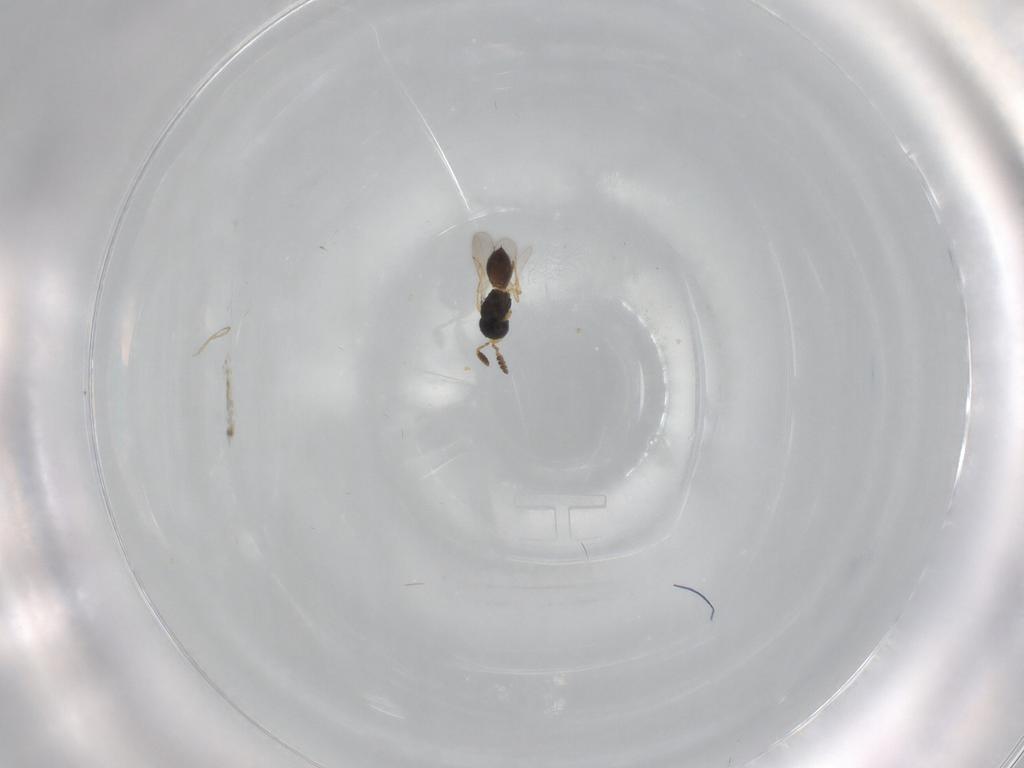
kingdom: Animalia
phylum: Arthropoda
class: Insecta
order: Hymenoptera
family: Scelionidae
